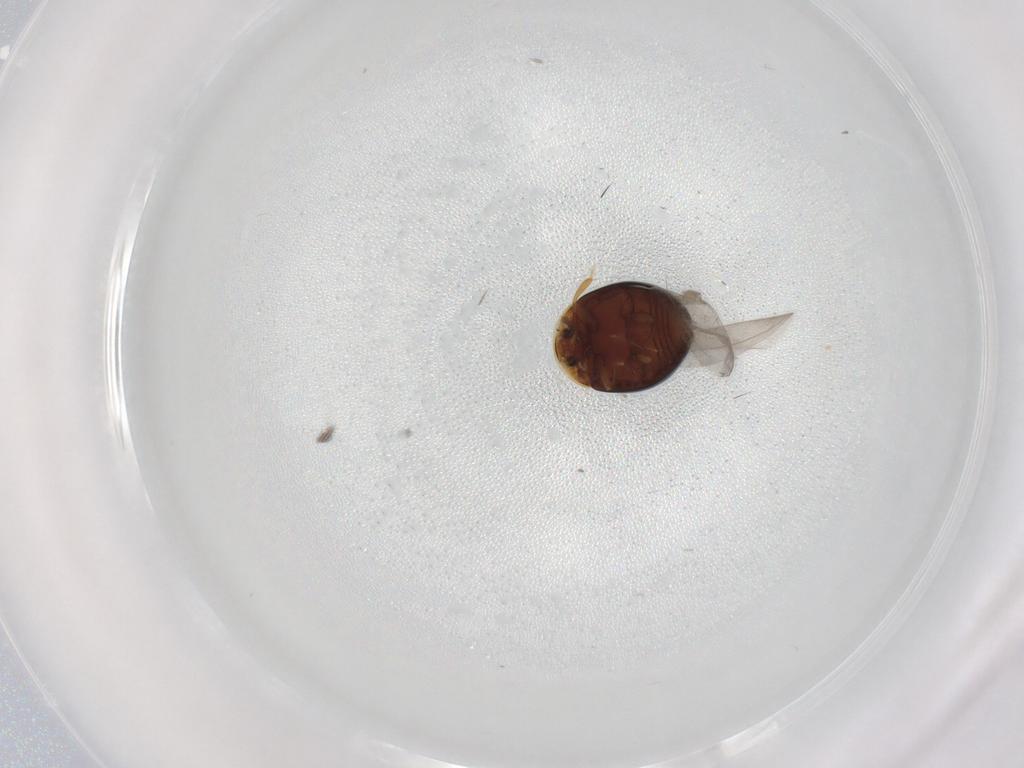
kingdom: Animalia
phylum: Arthropoda
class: Insecta
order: Coleoptera
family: Corylophidae
